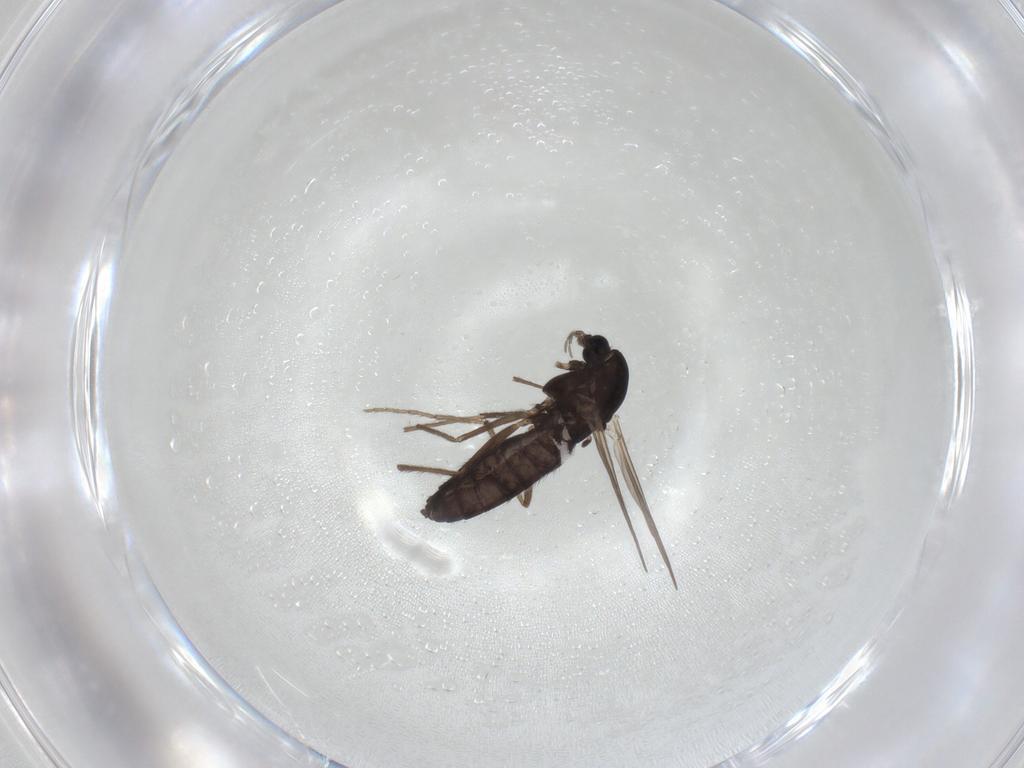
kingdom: Animalia
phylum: Arthropoda
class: Insecta
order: Diptera
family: Chironomidae
